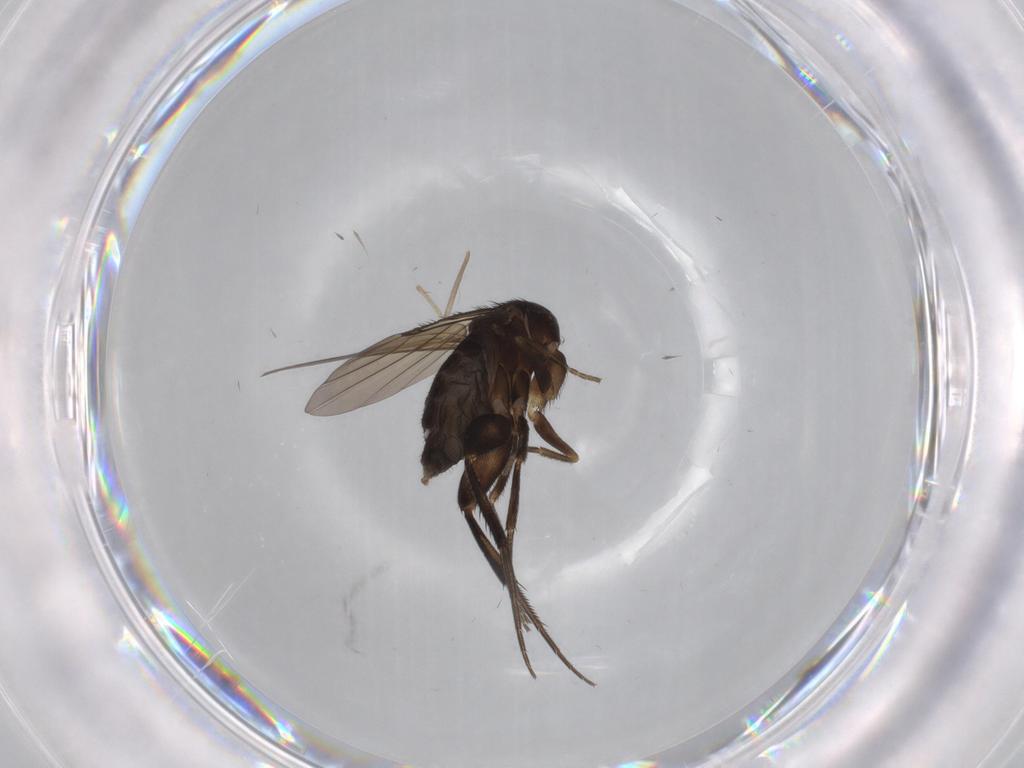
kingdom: Animalia
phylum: Arthropoda
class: Insecta
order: Diptera
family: Phoridae
